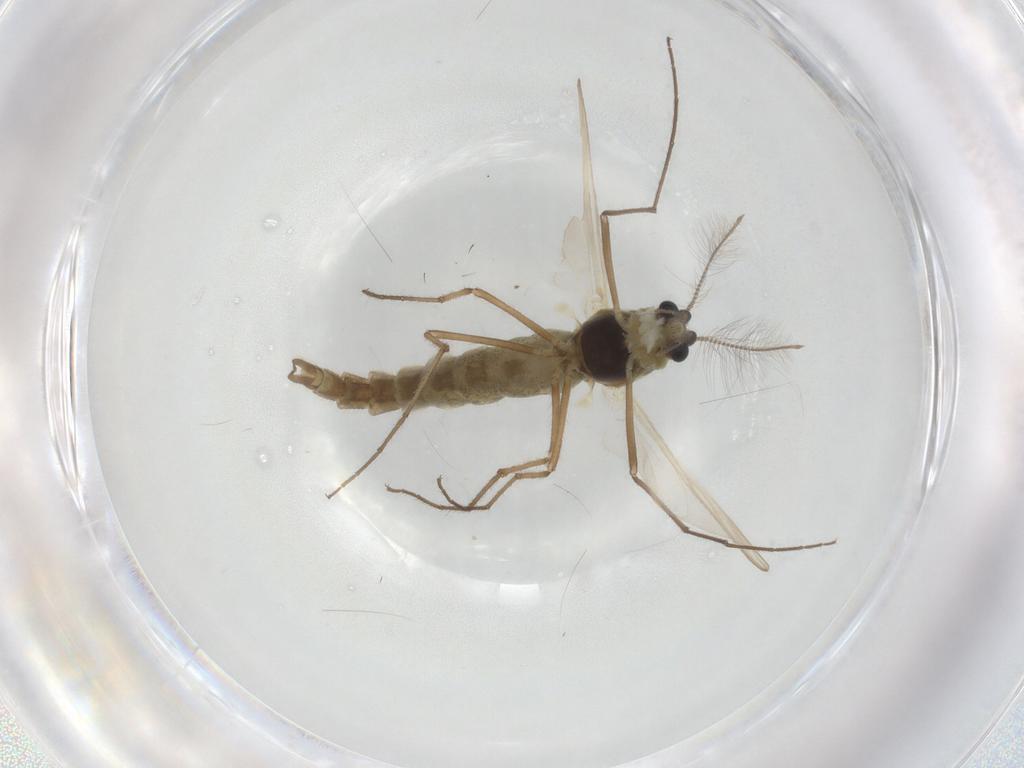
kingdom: Animalia
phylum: Arthropoda
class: Insecta
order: Diptera
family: Chironomidae
